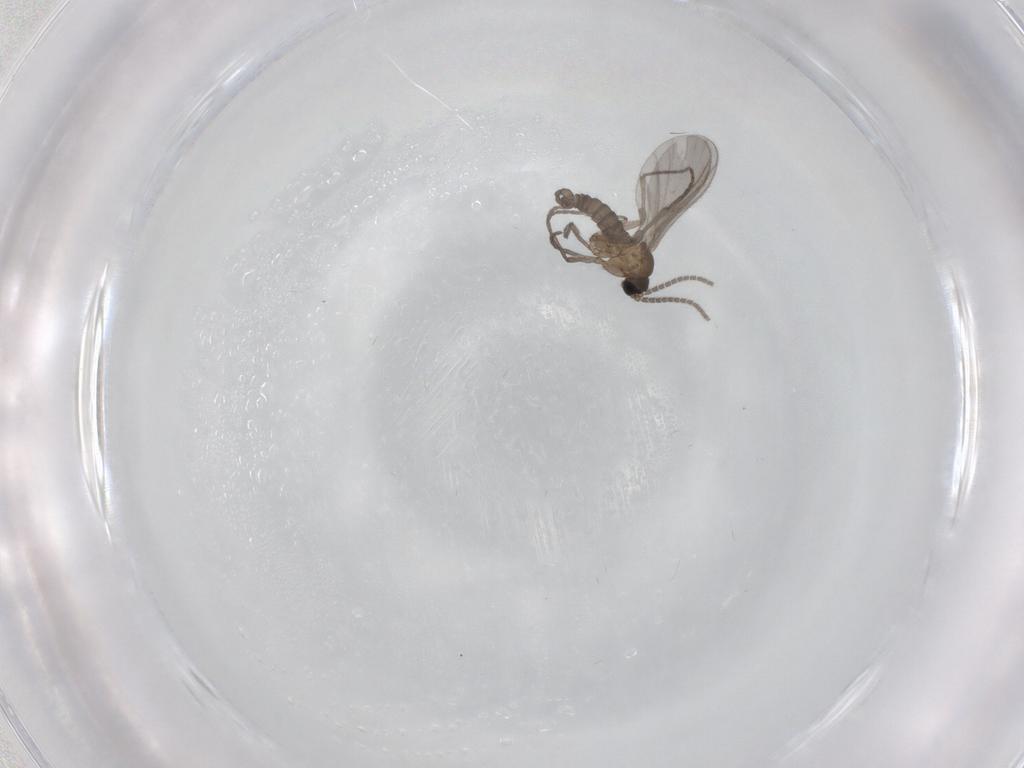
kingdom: Animalia
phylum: Arthropoda
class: Insecta
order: Diptera
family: Sciaridae
